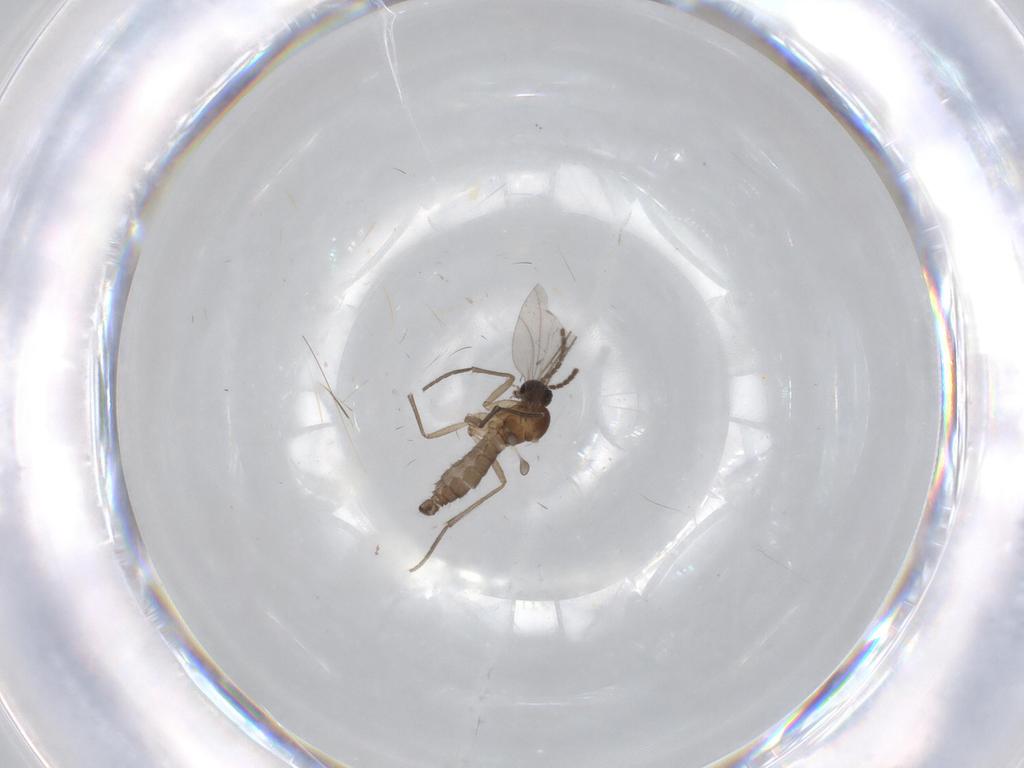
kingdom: Animalia
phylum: Arthropoda
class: Insecta
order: Diptera
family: Sciaridae
